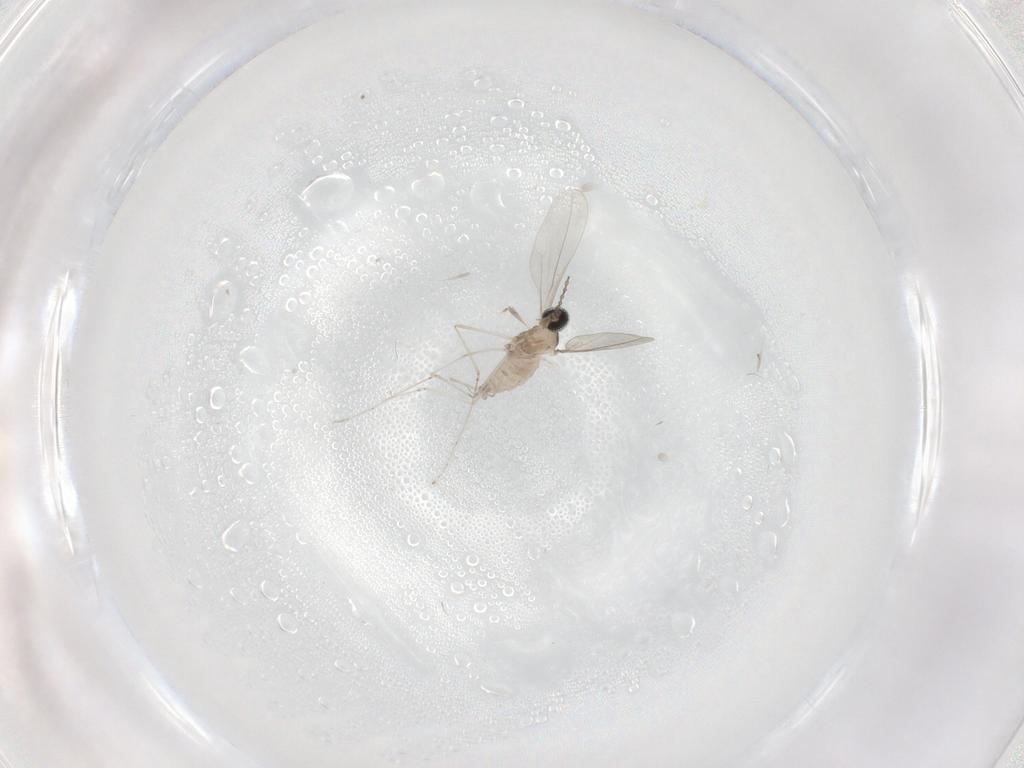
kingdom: Animalia
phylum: Arthropoda
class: Insecta
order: Diptera
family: Cecidomyiidae
